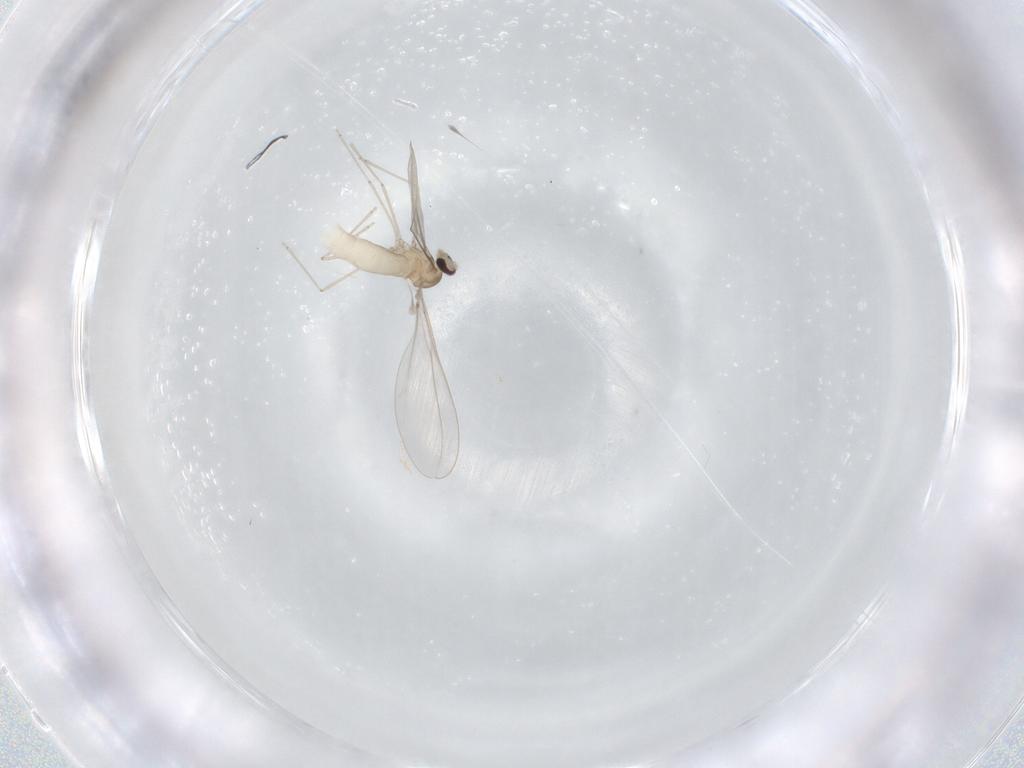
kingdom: Animalia
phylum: Arthropoda
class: Insecta
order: Diptera
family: Cecidomyiidae
